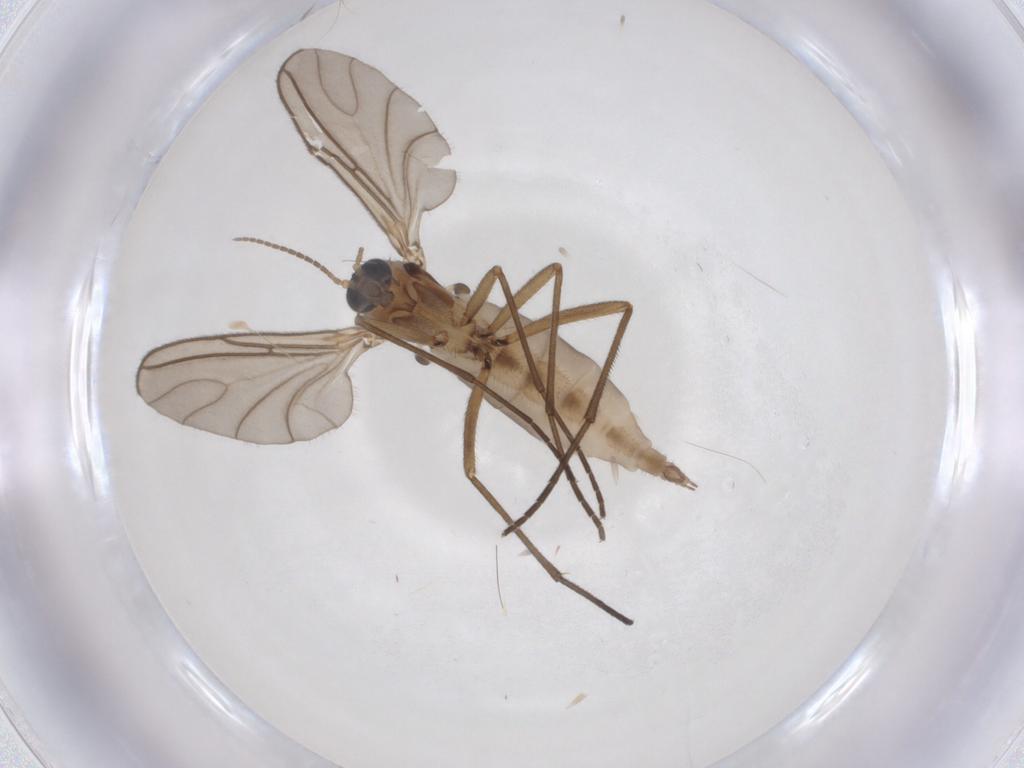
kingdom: Animalia
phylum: Arthropoda
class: Insecta
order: Diptera
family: Sciaridae
